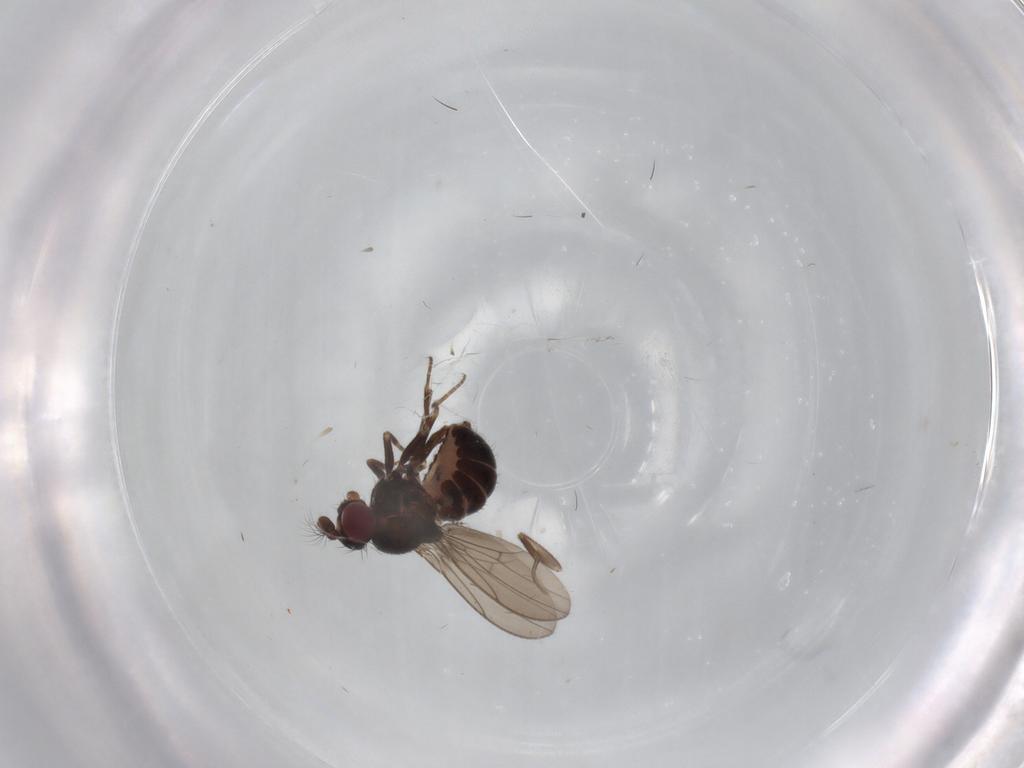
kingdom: Animalia
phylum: Arthropoda
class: Insecta
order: Diptera
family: Ephydridae
